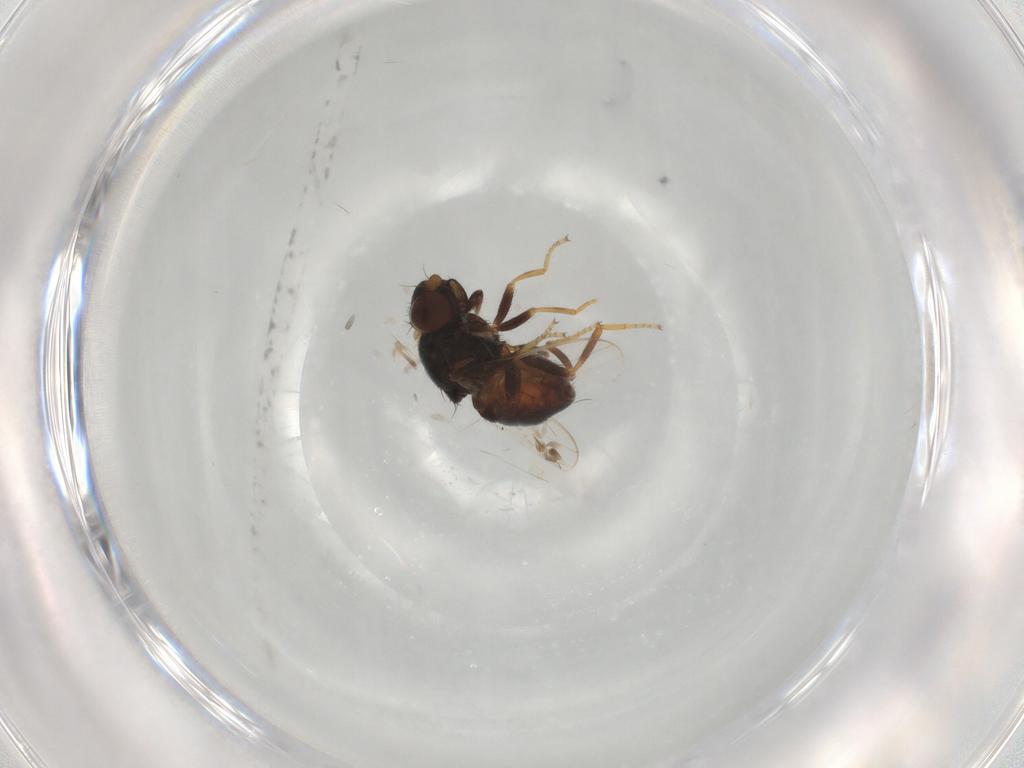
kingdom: Animalia
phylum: Arthropoda
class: Insecta
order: Diptera
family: Chloropidae
